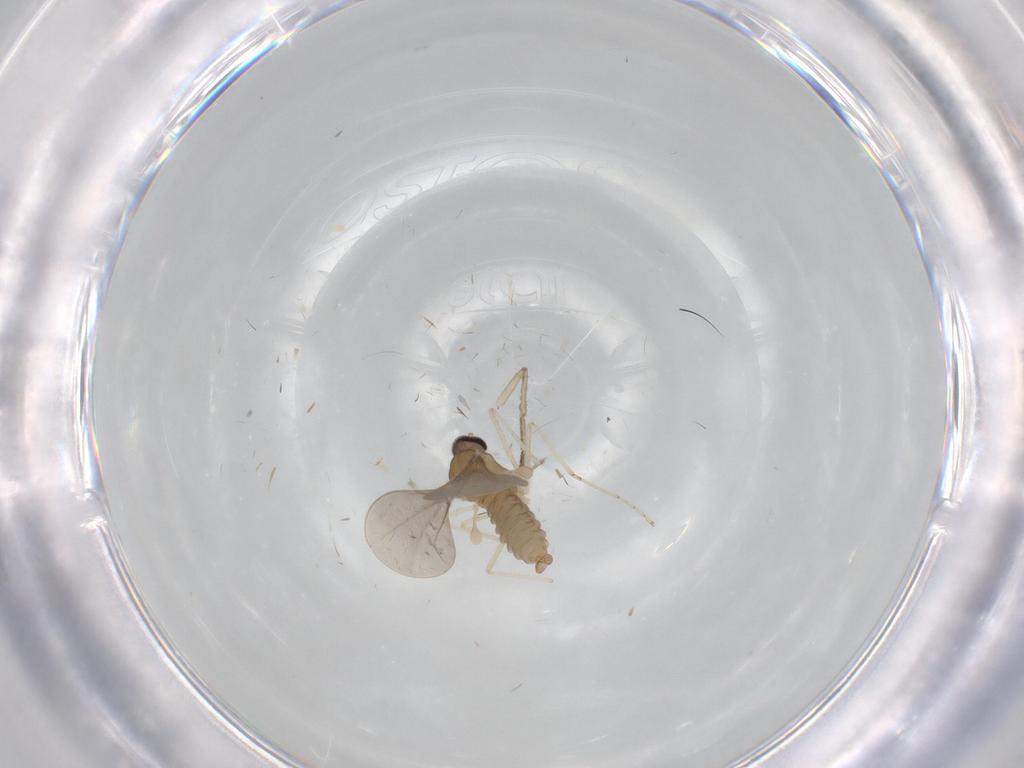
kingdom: Animalia
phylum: Arthropoda
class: Insecta
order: Diptera
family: Cecidomyiidae
